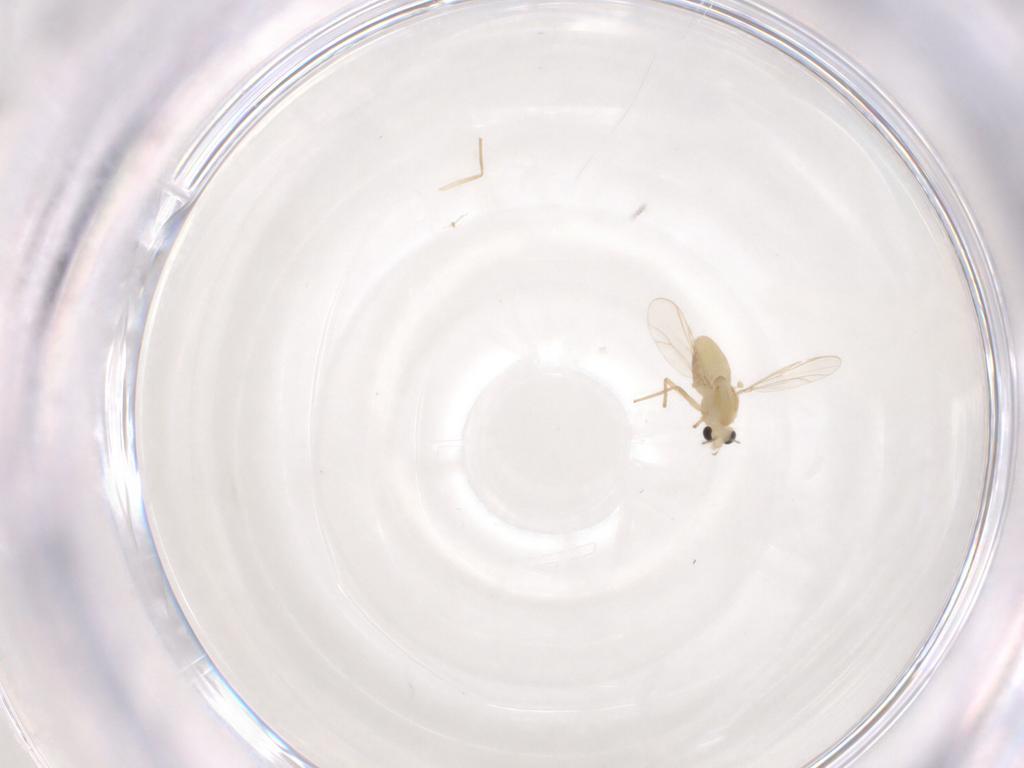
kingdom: Animalia
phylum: Arthropoda
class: Insecta
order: Diptera
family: Chironomidae
